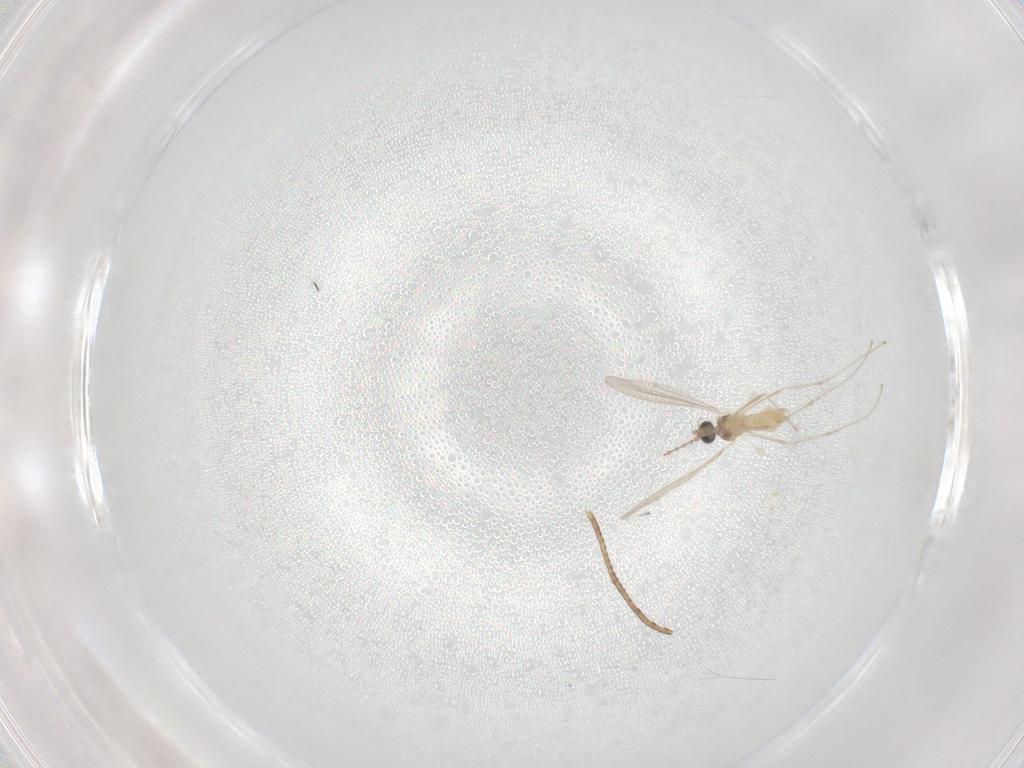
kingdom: Animalia
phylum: Arthropoda
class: Insecta
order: Diptera
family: Cecidomyiidae
